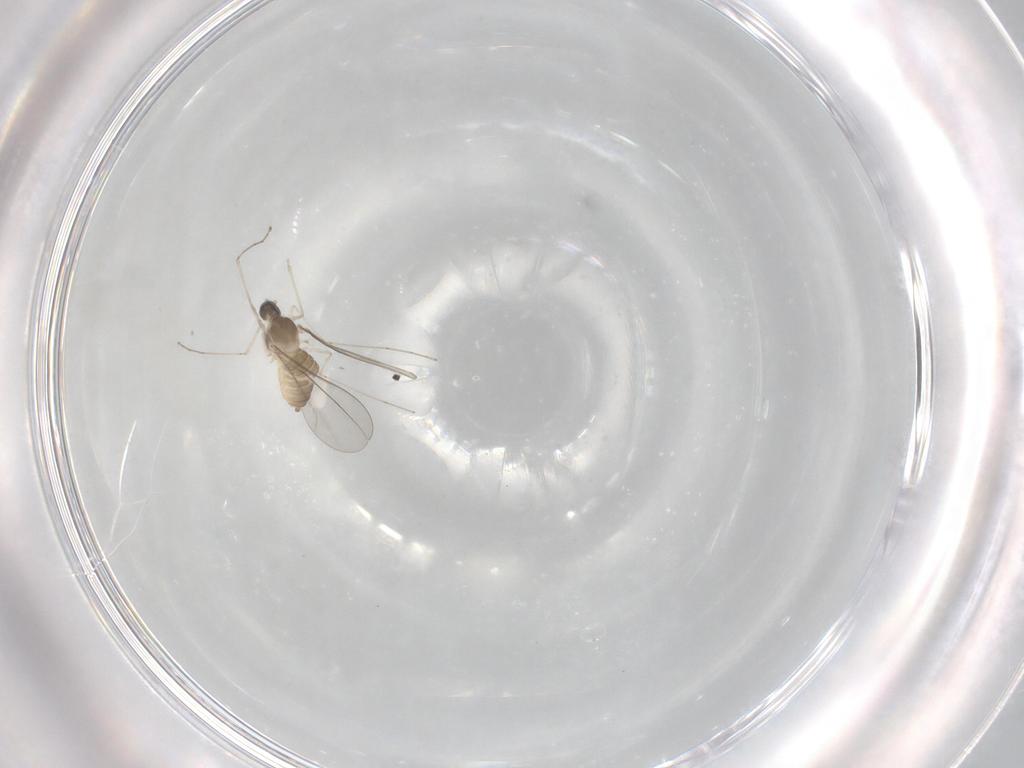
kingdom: Animalia
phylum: Arthropoda
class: Insecta
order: Diptera
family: Cecidomyiidae
